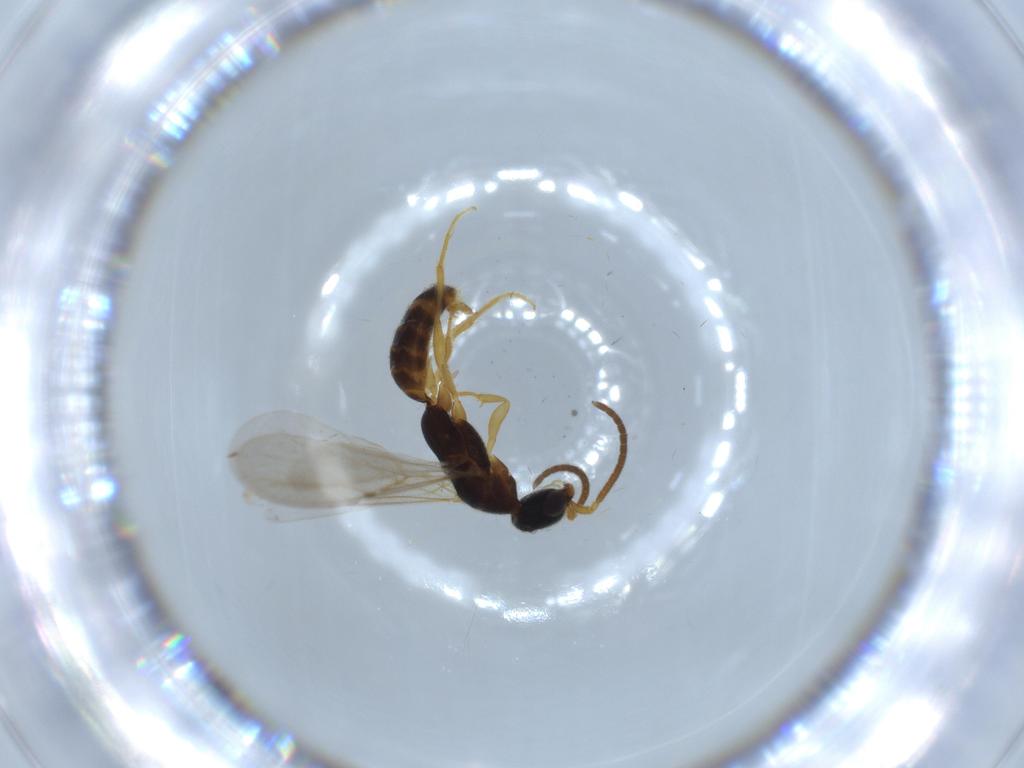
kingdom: Animalia
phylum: Arthropoda
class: Insecta
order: Hymenoptera
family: Bethylidae
